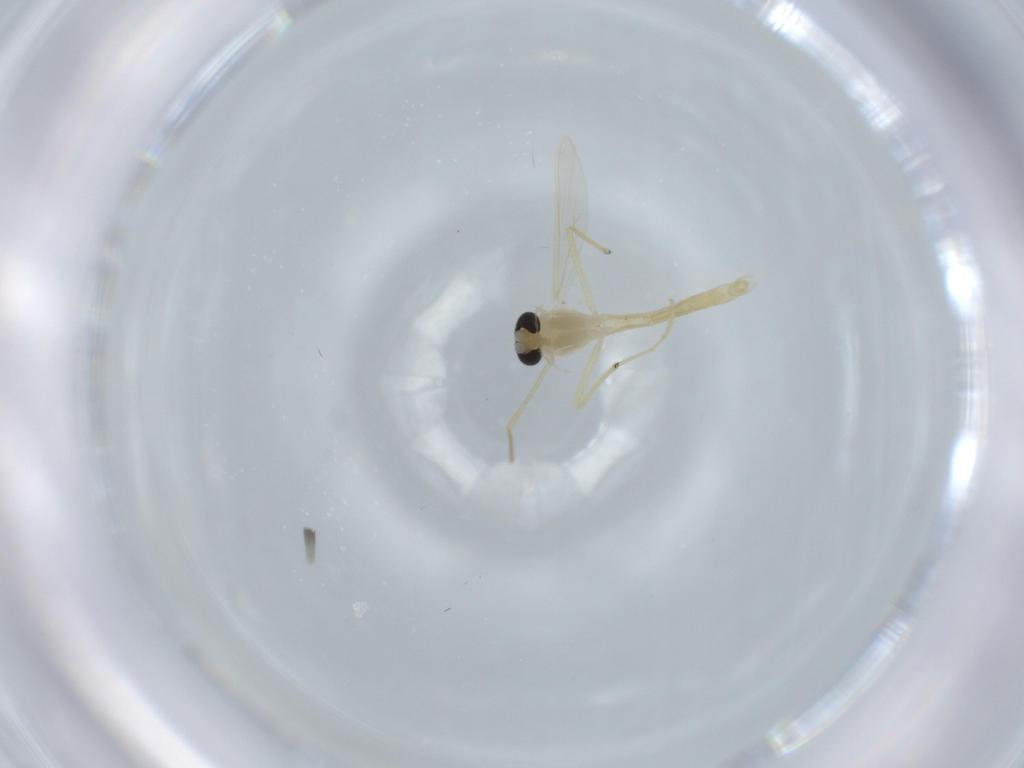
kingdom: Animalia
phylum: Arthropoda
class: Insecta
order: Diptera
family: Chironomidae
